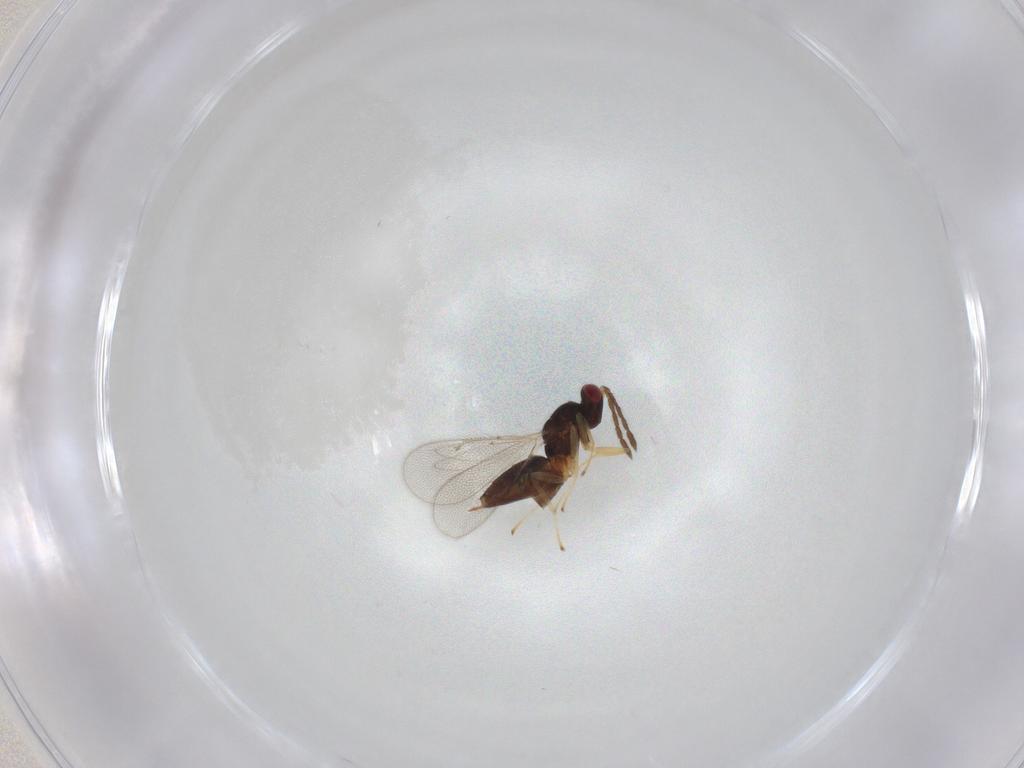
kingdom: Animalia
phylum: Arthropoda
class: Insecta
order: Hymenoptera
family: Eulophidae
